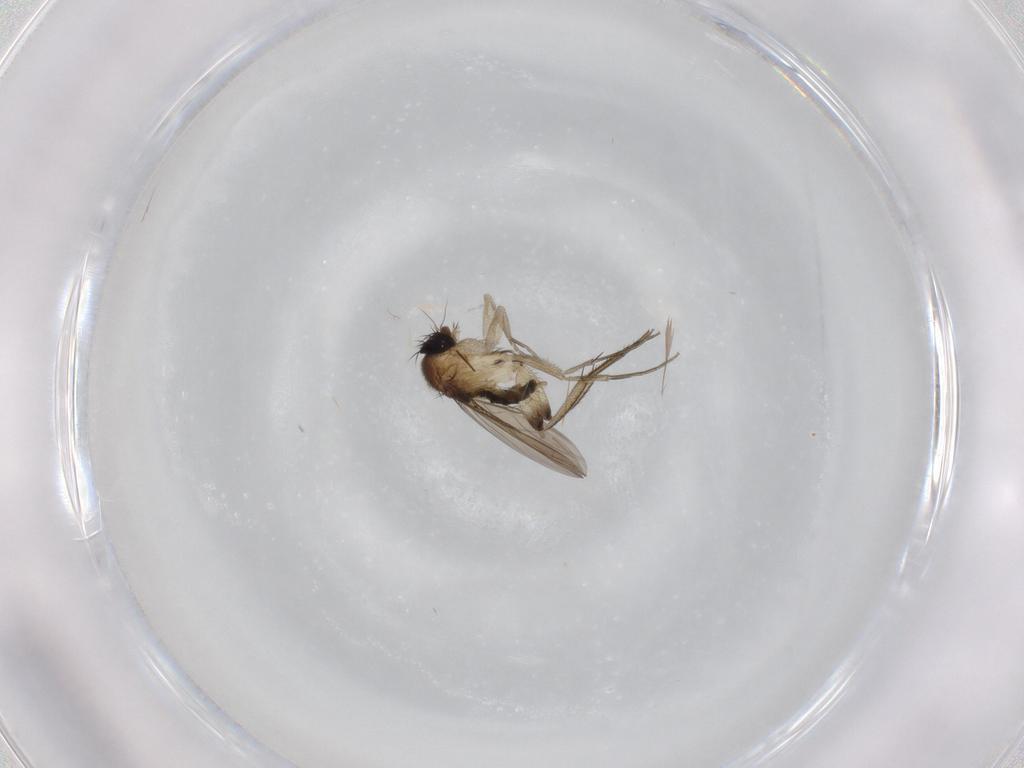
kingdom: Animalia
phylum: Arthropoda
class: Insecta
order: Diptera
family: Phoridae
